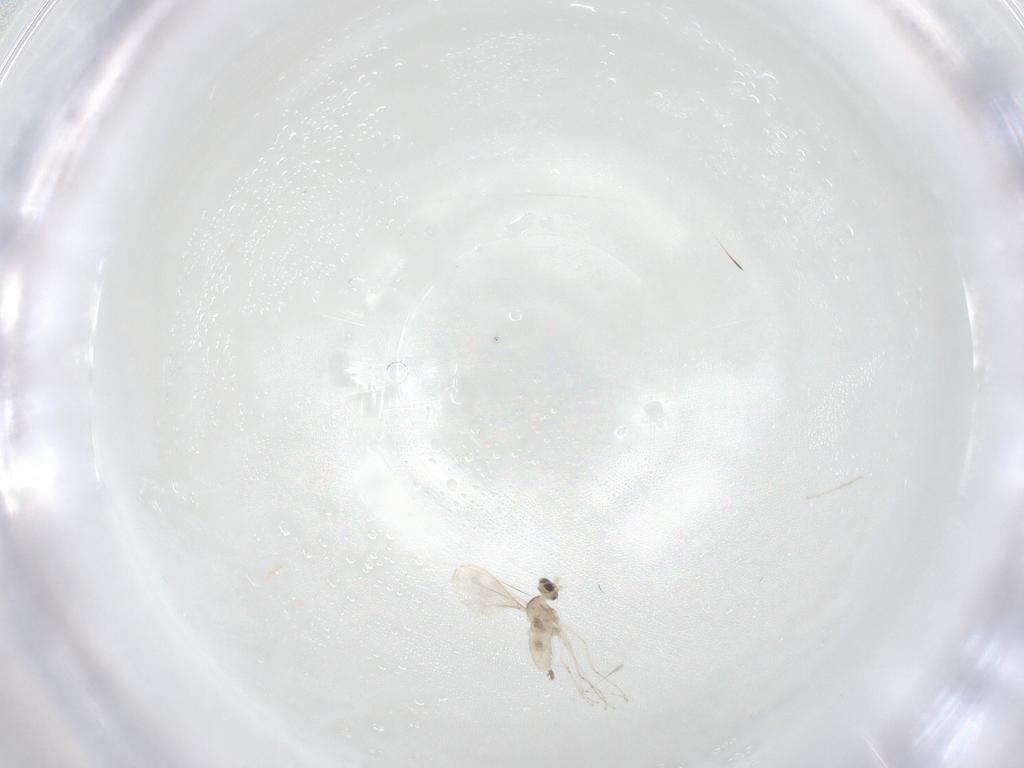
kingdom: Animalia
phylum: Arthropoda
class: Insecta
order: Diptera
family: Cecidomyiidae
